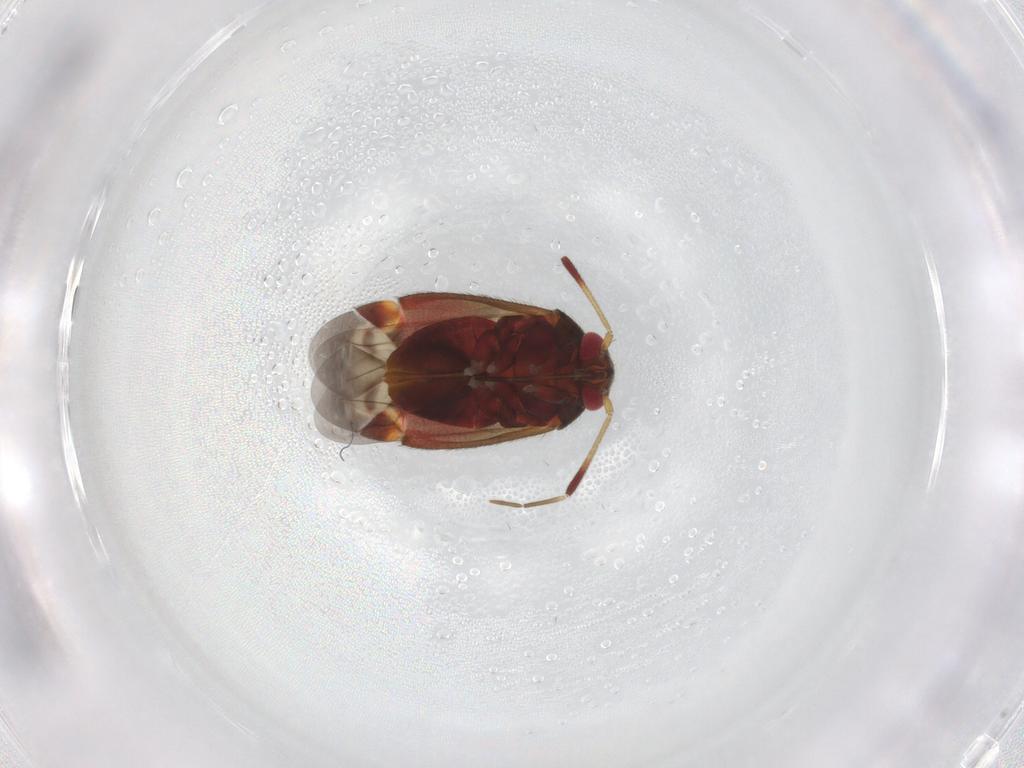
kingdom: Animalia
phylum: Arthropoda
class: Insecta
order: Hemiptera
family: Miridae
